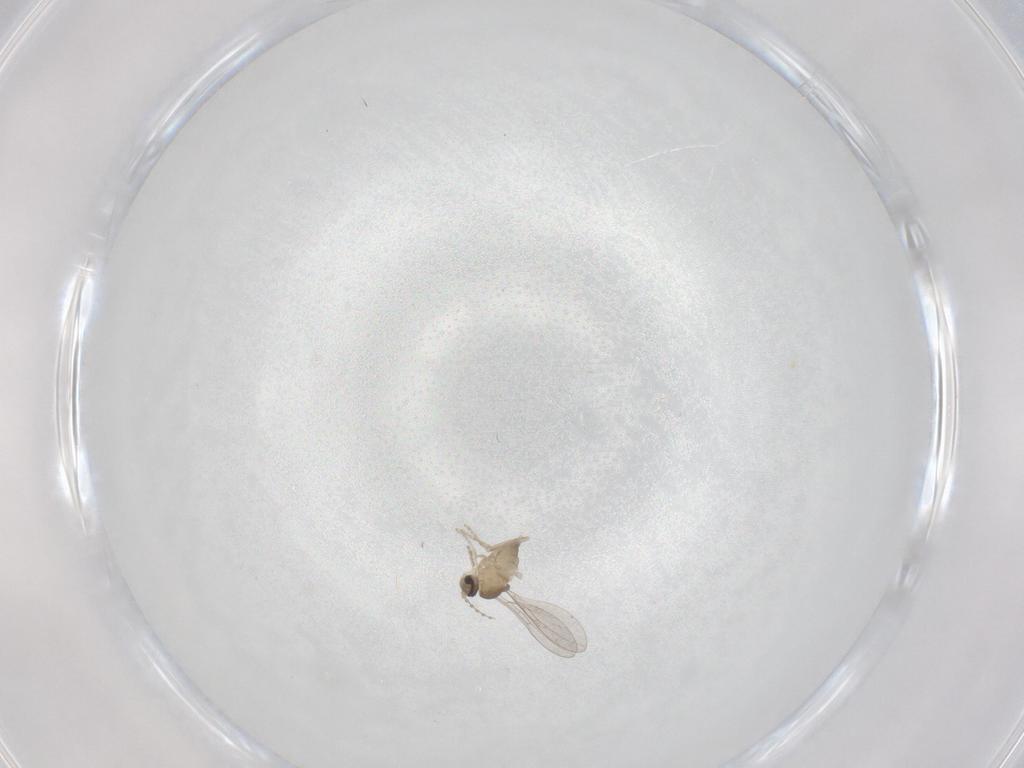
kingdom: Animalia
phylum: Arthropoda
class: Insecta
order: Diptera
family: Cecidomyiidae
